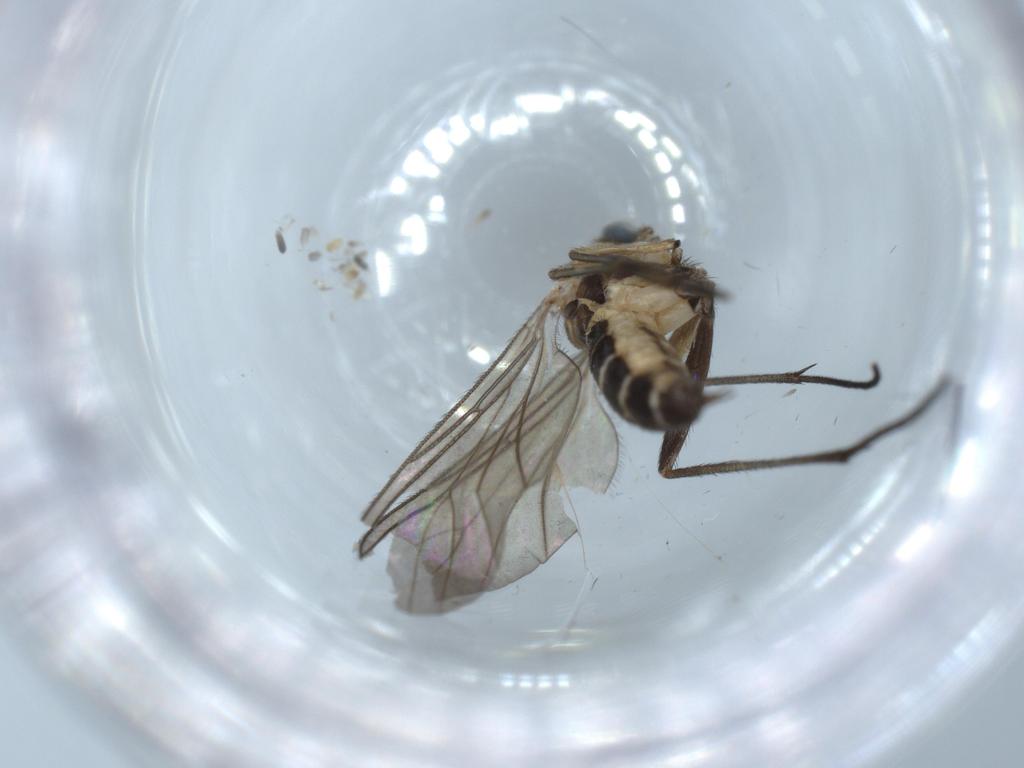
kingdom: Animalia
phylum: Arthropoda
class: Insecta
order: Diptera
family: Sciaridae
